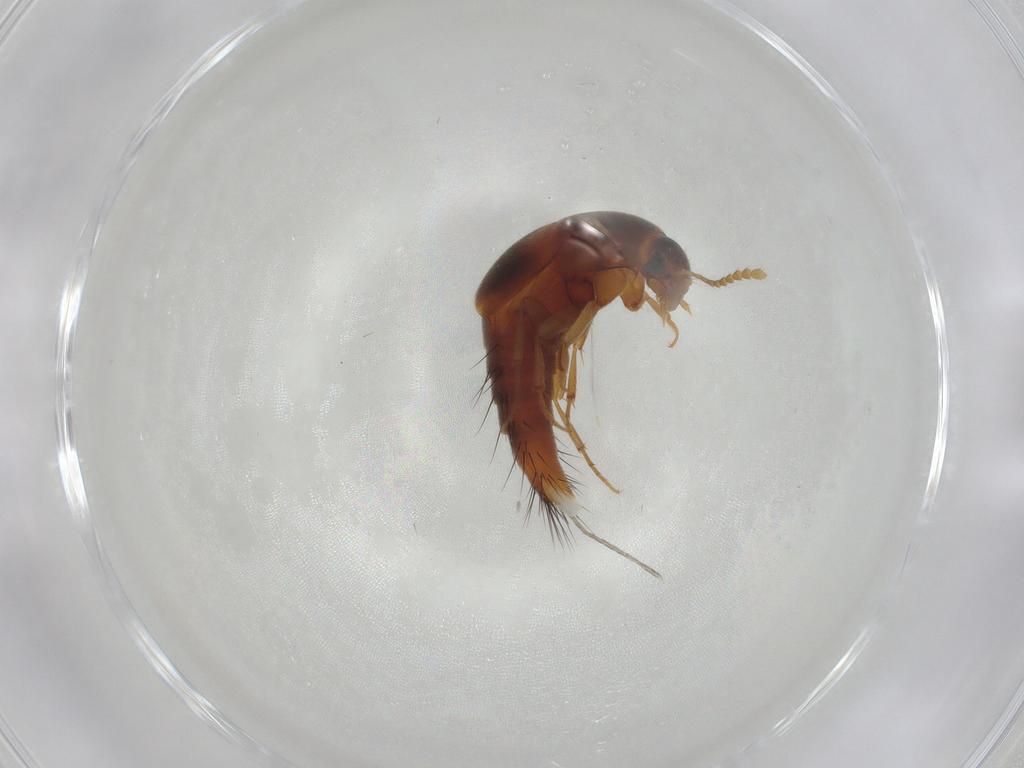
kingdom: Animalia
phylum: Arthropoda
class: Insecta
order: Coleoptera
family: Staphylinidae
